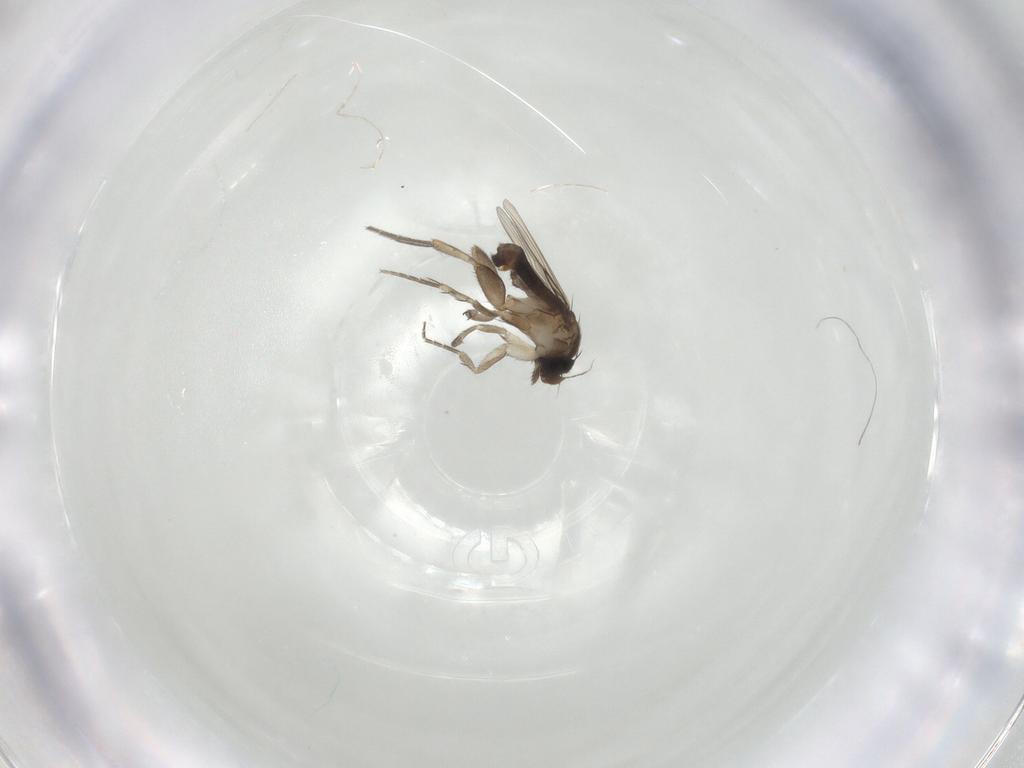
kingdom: Animalia
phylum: Arthropoda
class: Insecta
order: Diptera
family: Phoridae
